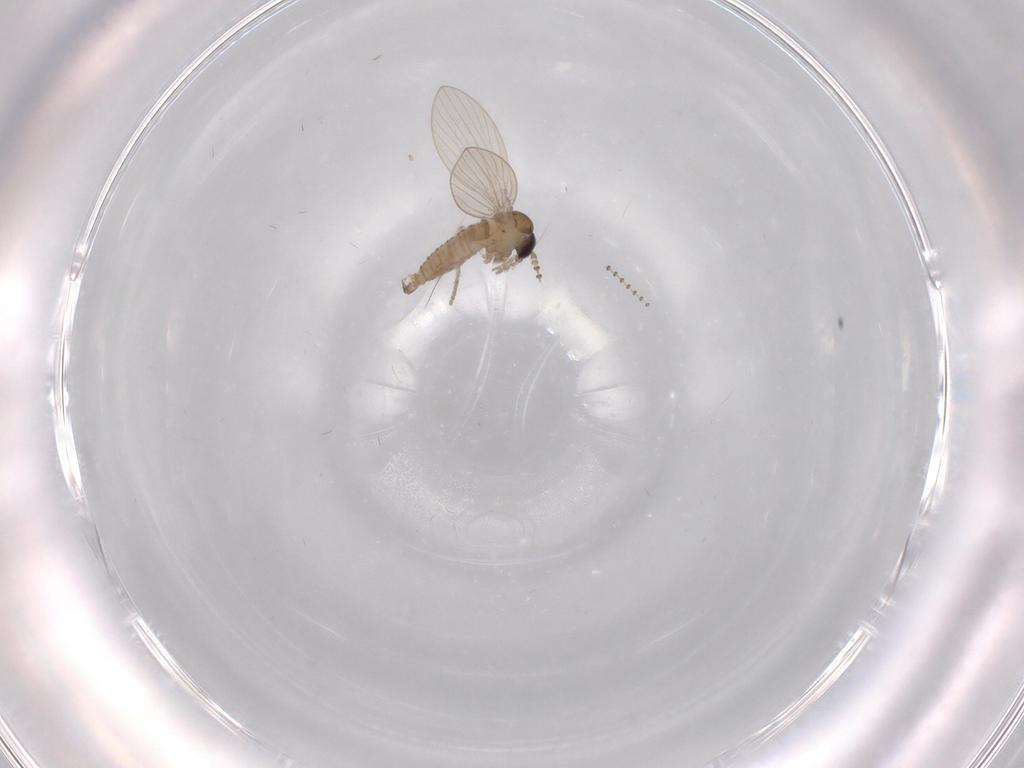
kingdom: Animalia
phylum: Arthropoda
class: Insecta
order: Diptera
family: Psychodidae
